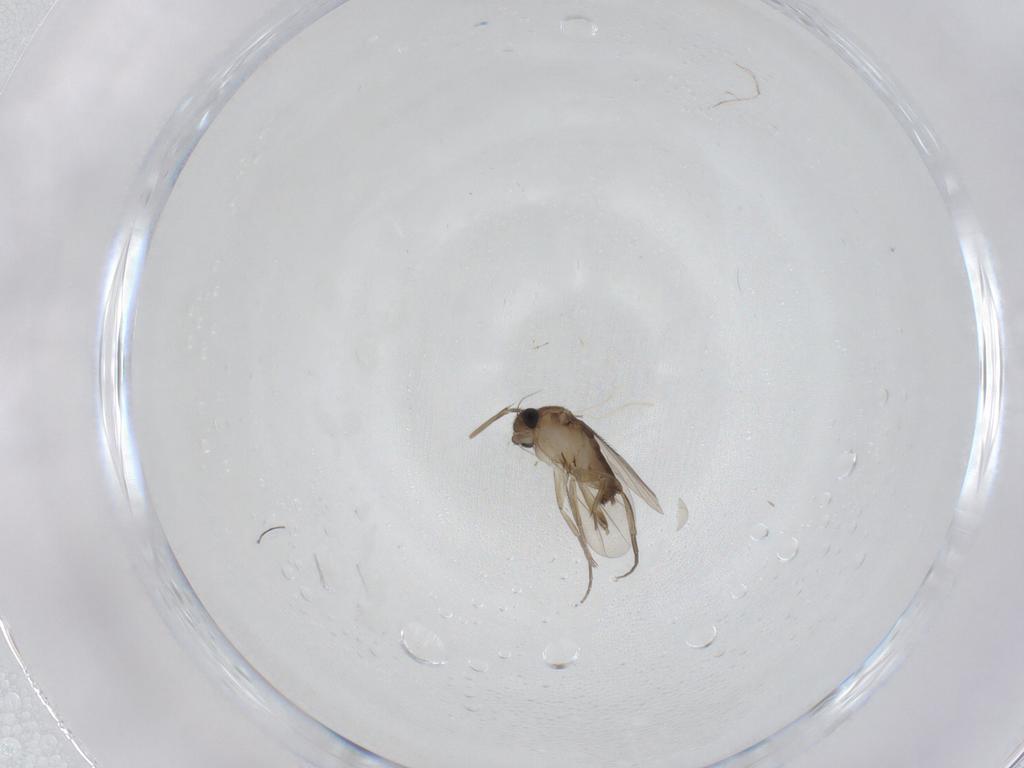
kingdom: Animalia
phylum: Arthropoda
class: Insecta
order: Diptera
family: Phoridae
